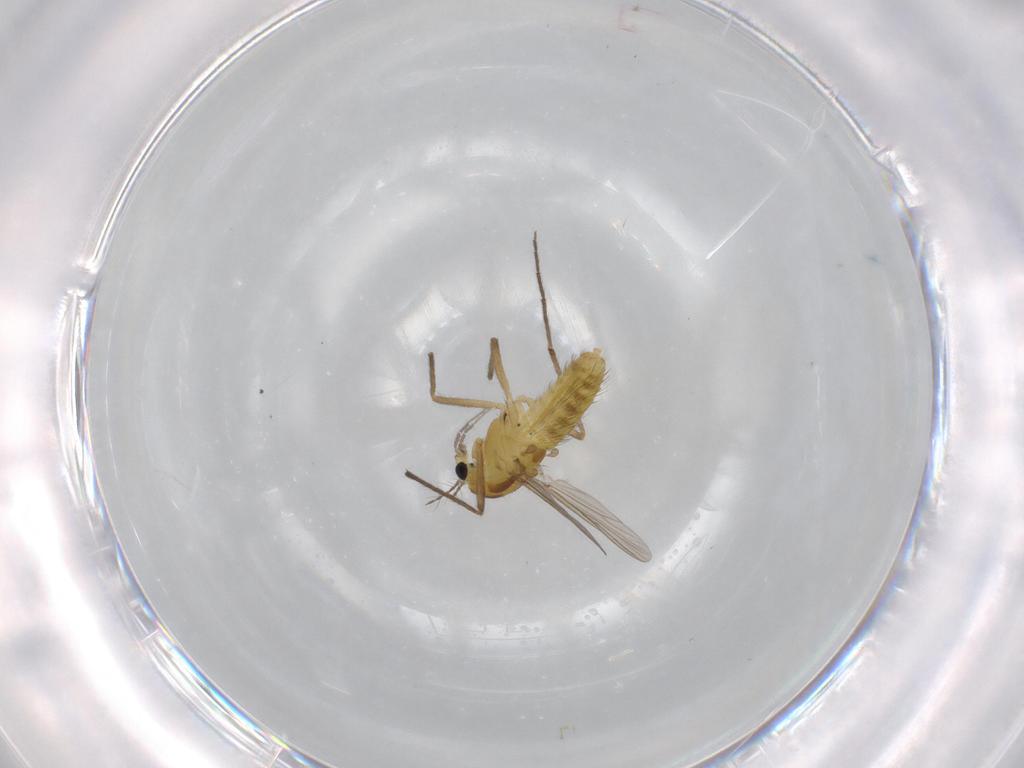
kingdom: Animalia
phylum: Arthropoda
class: Insecta
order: Diptera
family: Chironomidae
